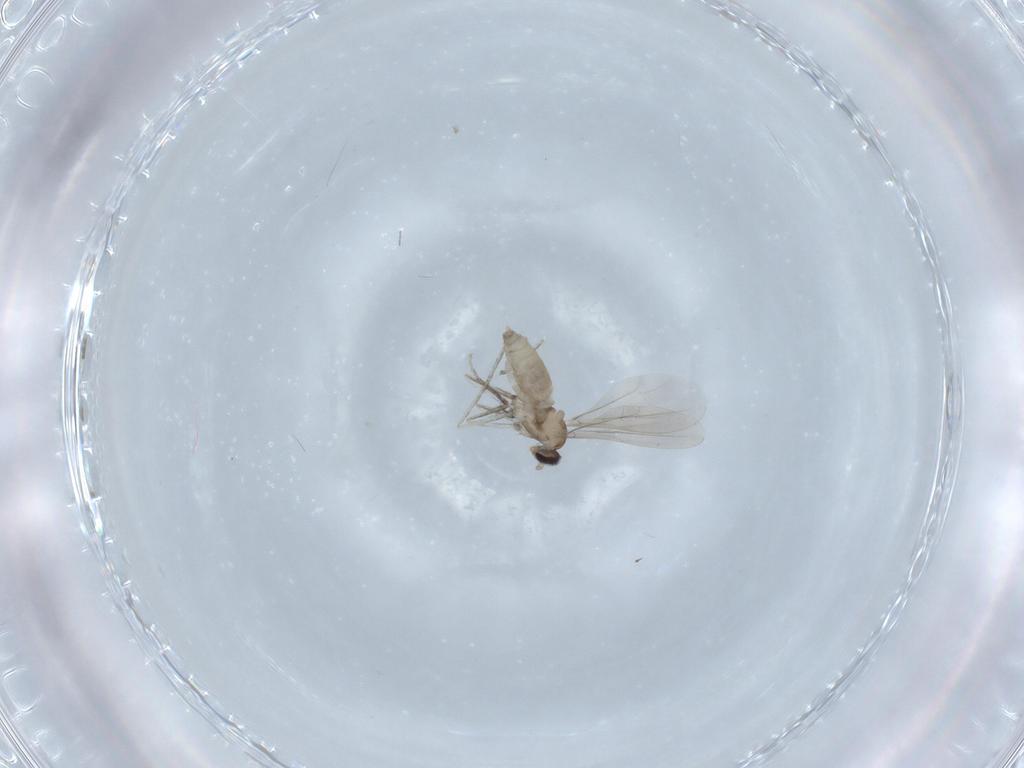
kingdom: Animalia
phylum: Arthropoda
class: Insecta
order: Diptera
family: Cecidomyiidae
